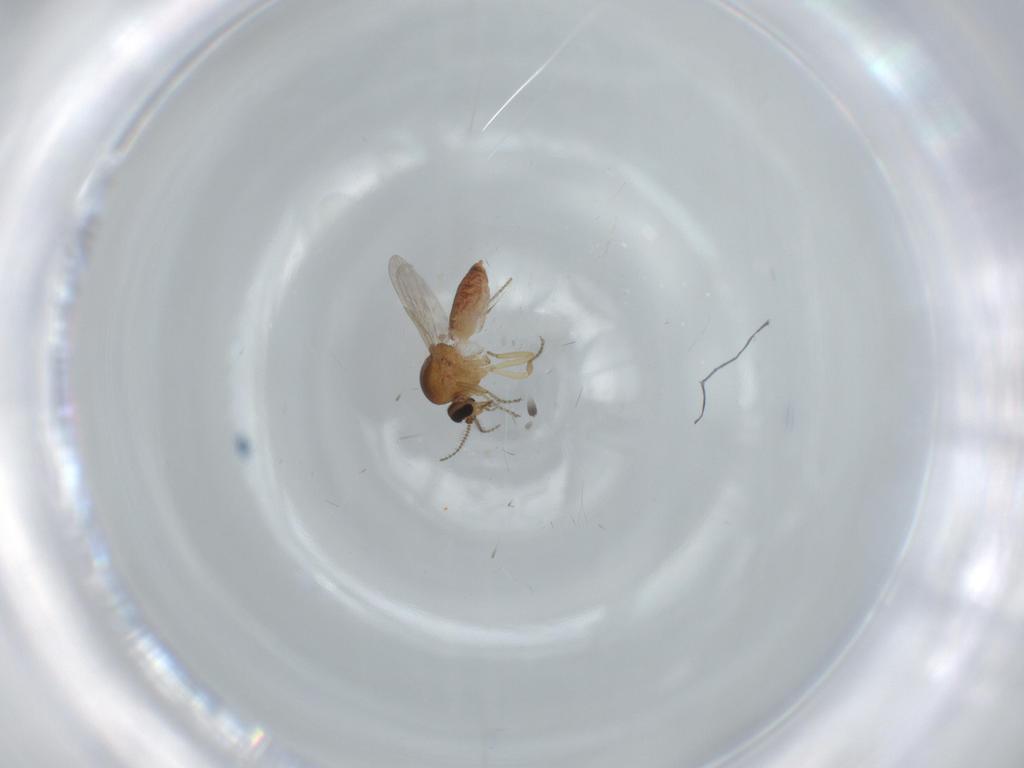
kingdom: Animalia
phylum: Arthropoda
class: Insecta
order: Diptera
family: Ceratopogonidae
